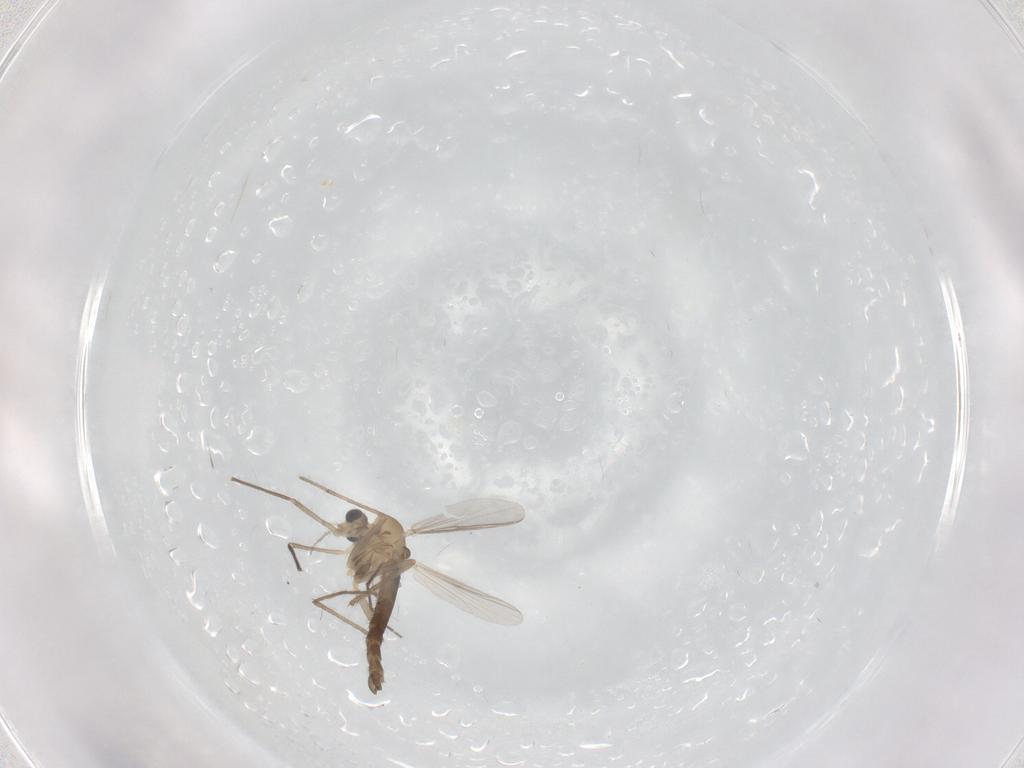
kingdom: Animalia
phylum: Arthropoda
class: Insecta
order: Diptera
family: Chironomidae
